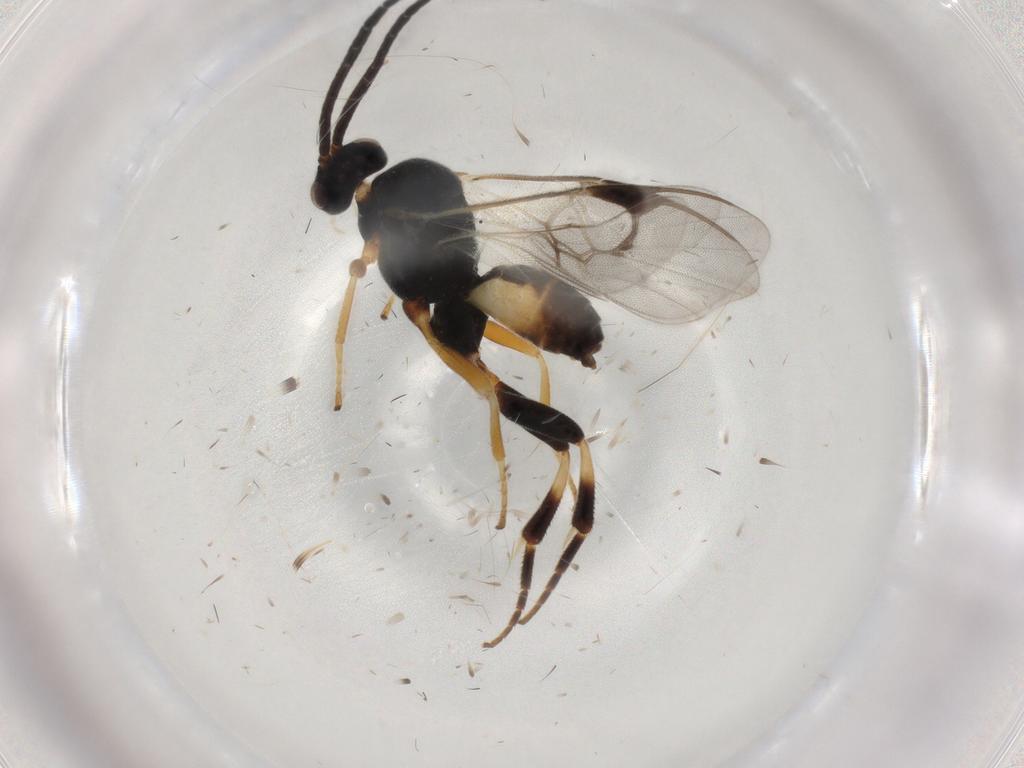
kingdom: Animalia
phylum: Arthropoda
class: Insecta
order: Hymenoptera
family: Braconidae
